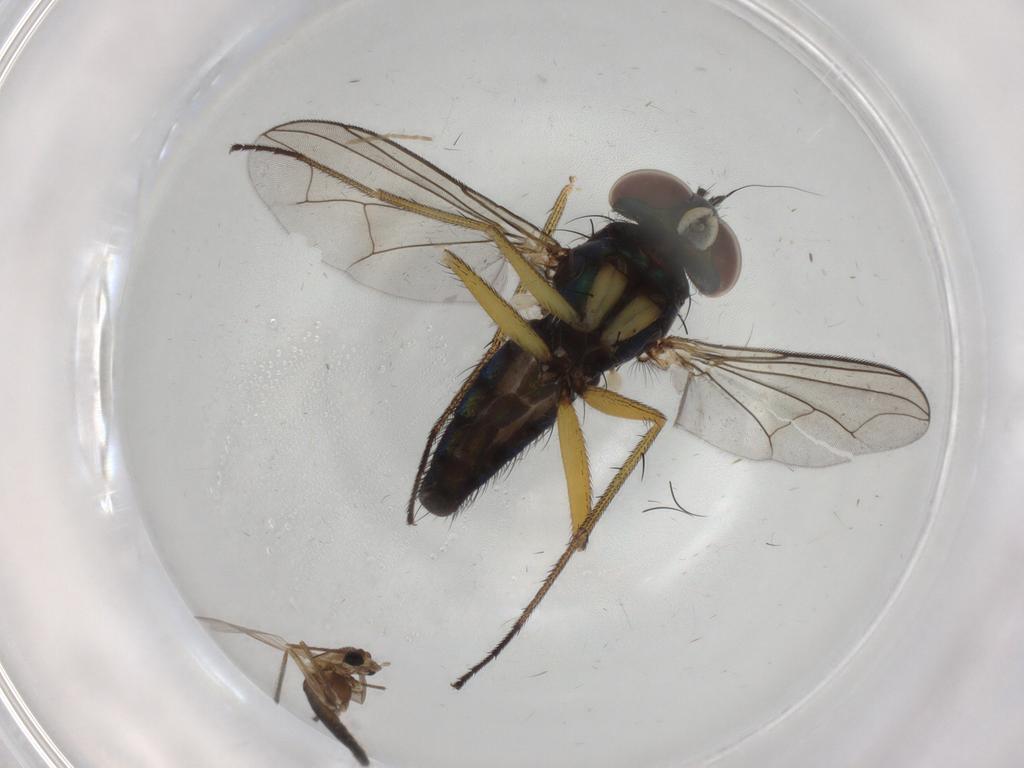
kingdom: Animalia
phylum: Arthropoda
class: Insecta
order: Diptera
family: Dolichopodidae
